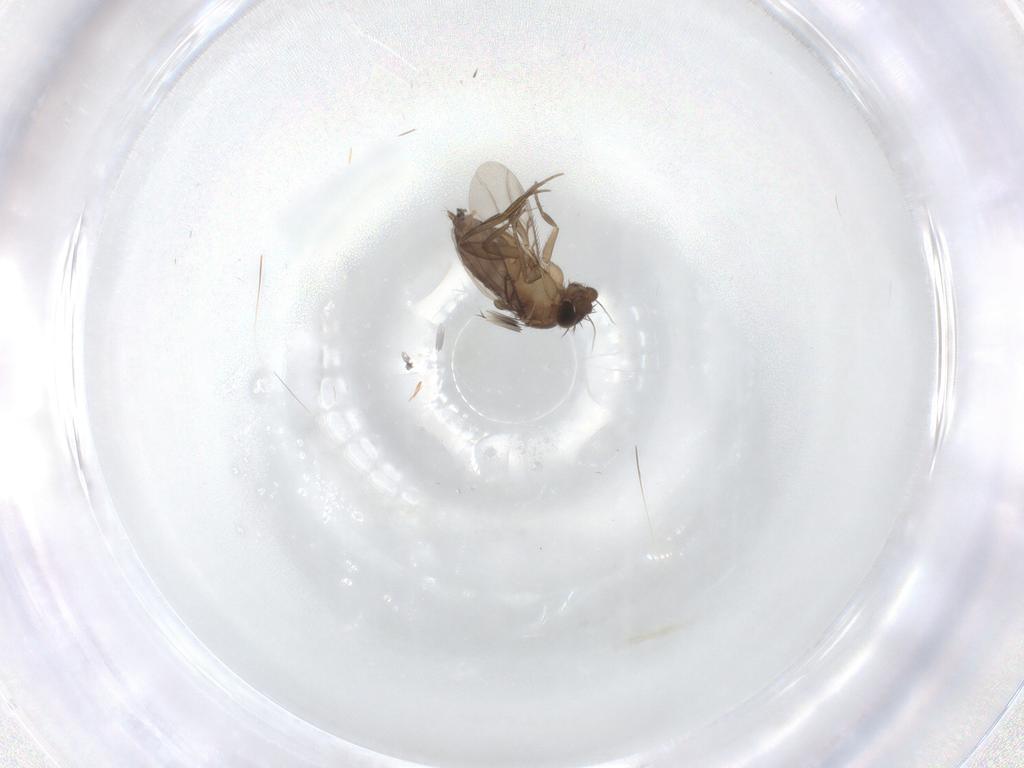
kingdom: Animalia
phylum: Arthropoda
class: Insecta
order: Diptera
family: Phoridae
